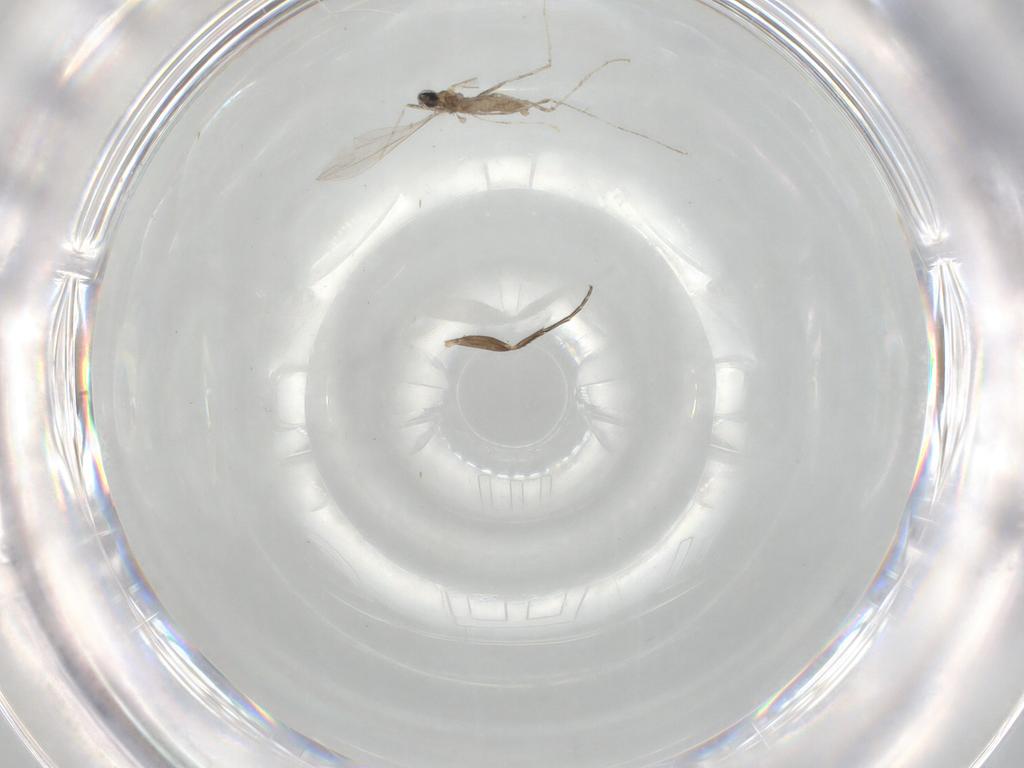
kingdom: Animalia
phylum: Arthropoda
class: Insecta
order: Diptera
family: Cecidomyiidae
